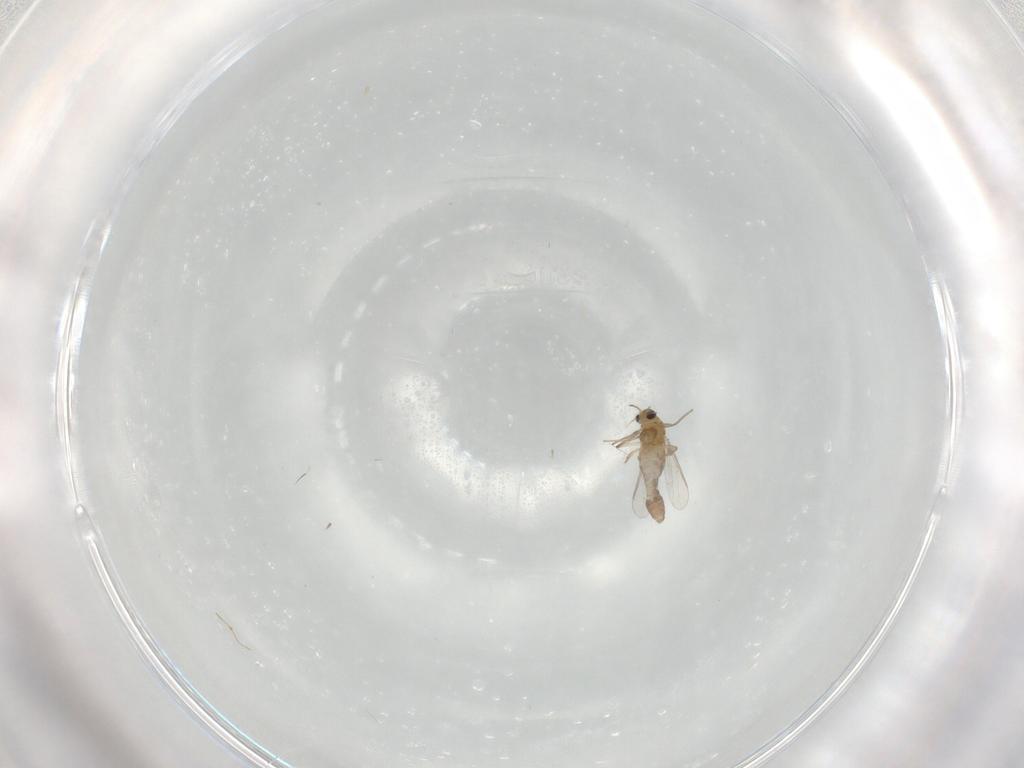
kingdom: Animalia
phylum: Arthropoda
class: Insecta
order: Diptera
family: Chironomidae
